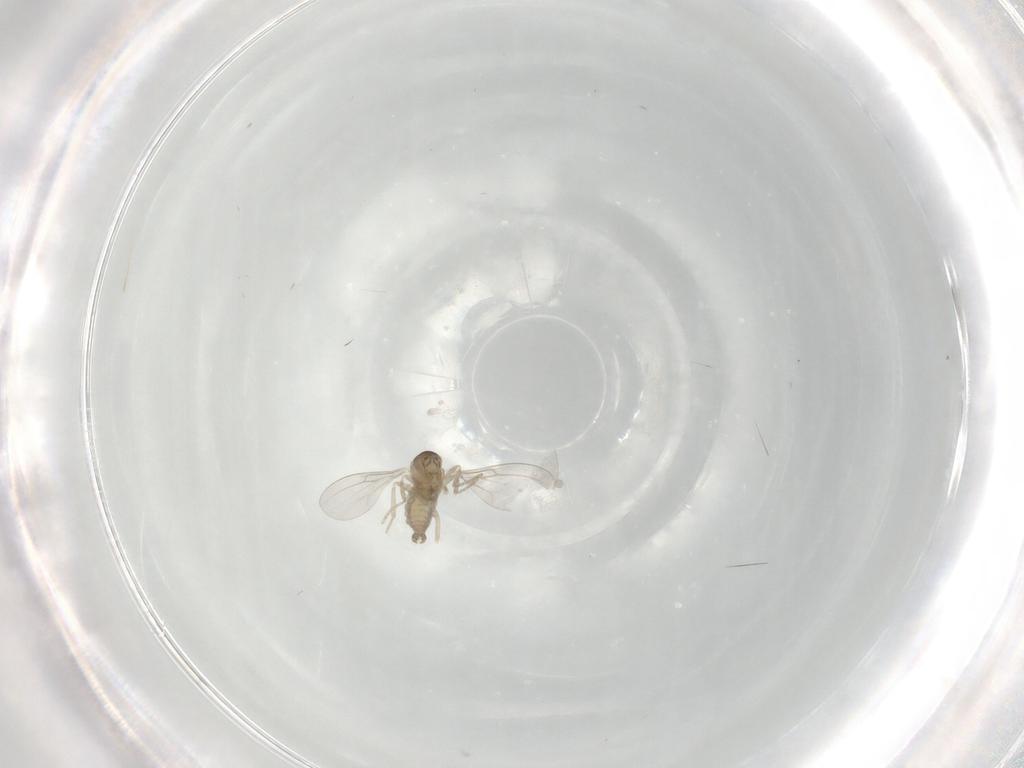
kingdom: Animalia
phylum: Arthropoda
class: Insecta
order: Diptera
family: Cecidomyiidae
